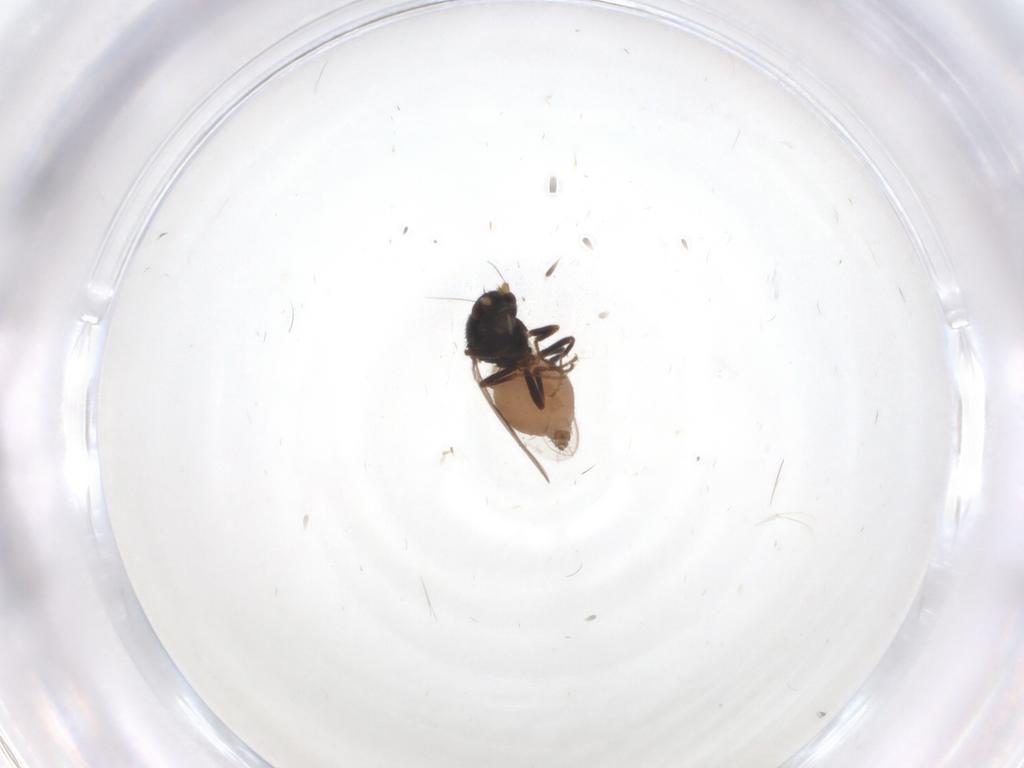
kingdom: Animalia
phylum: Arthropoda
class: Insecta
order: Diptera
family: Sphaeroceridae
